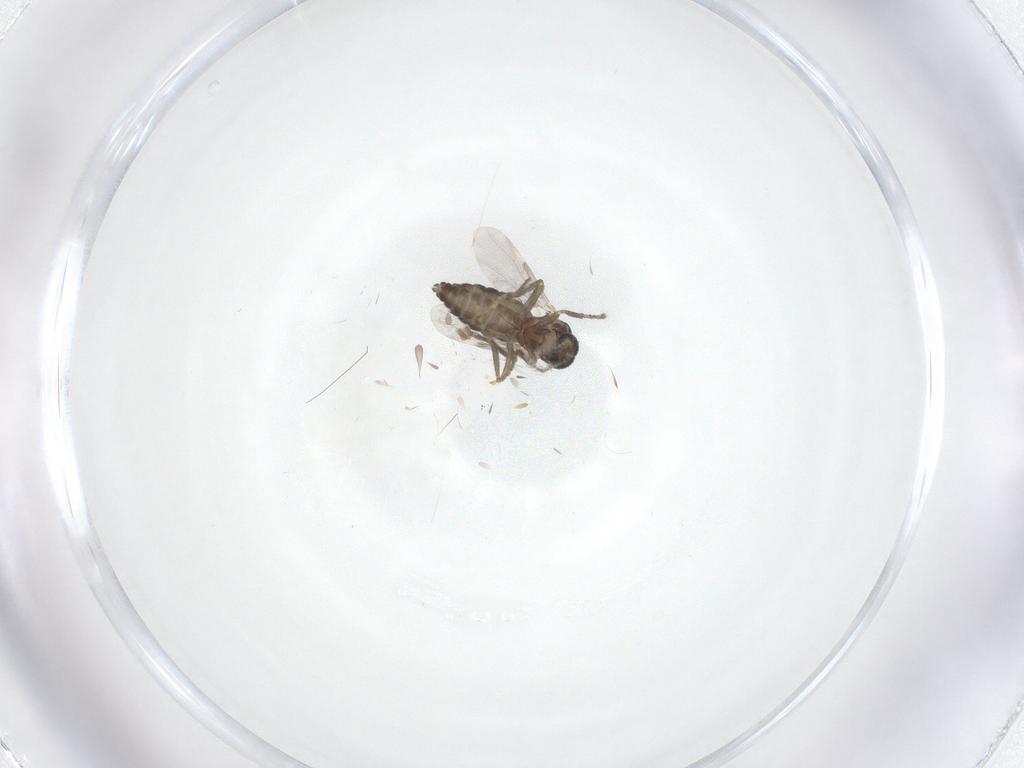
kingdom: Animalia
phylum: Arthropoda
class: Insecta
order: Diptera
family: Ceratopogonidae
